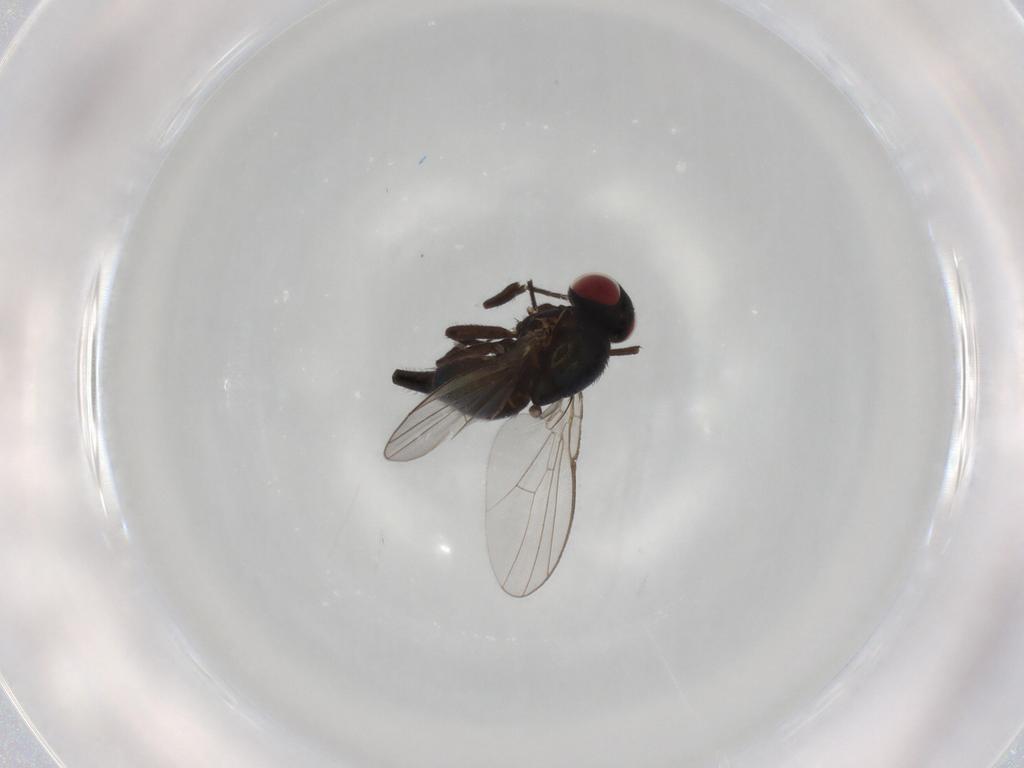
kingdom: Animalia
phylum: Arthropoda
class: Insecta
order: Diptera
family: Agromyzidae
